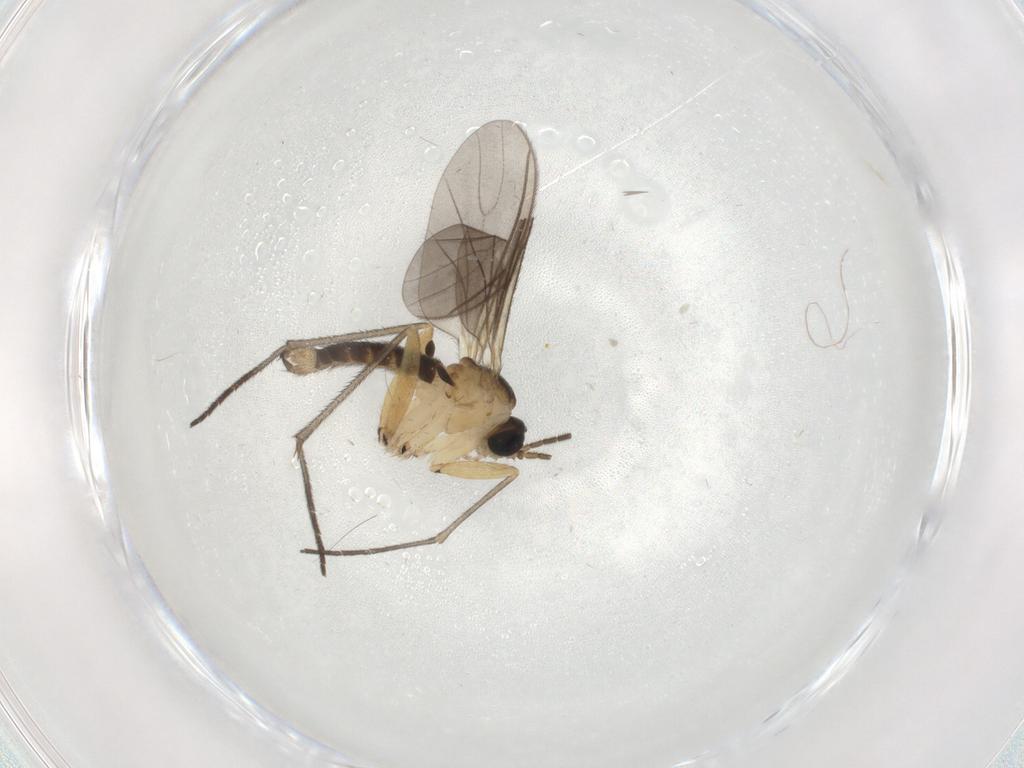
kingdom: Animalia
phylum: Arthropoda
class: Insecta
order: Diptera
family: Sciaridae
